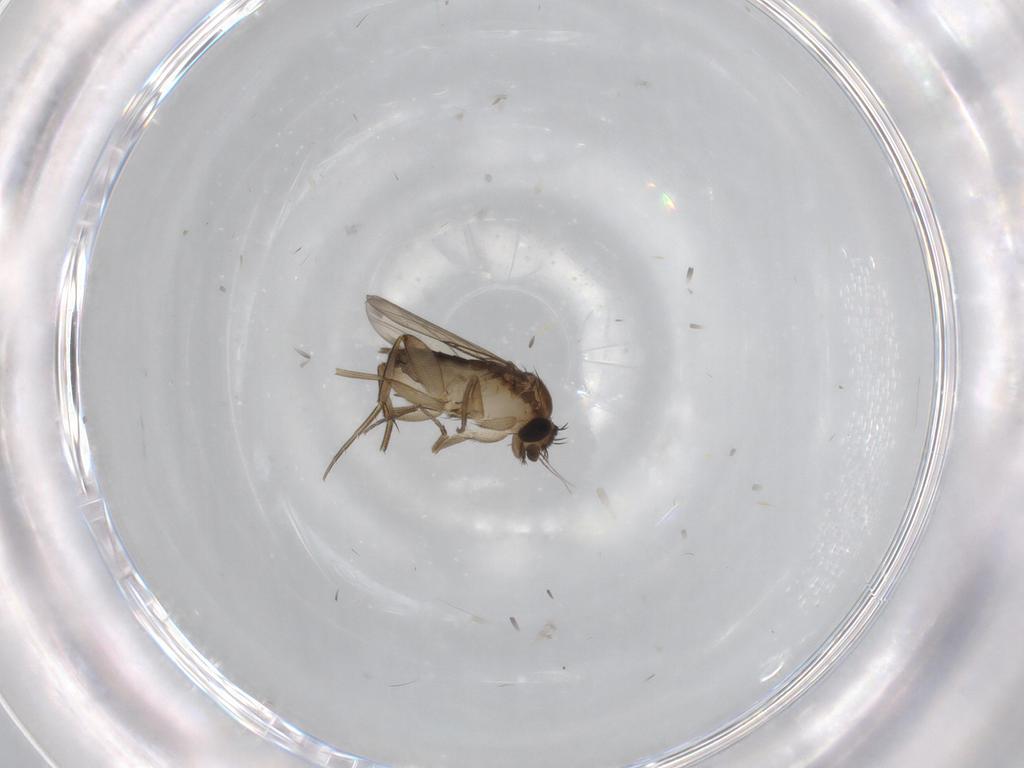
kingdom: Animalia
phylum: Arthropoda
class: Insecta
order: Diptera
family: Phoridae
